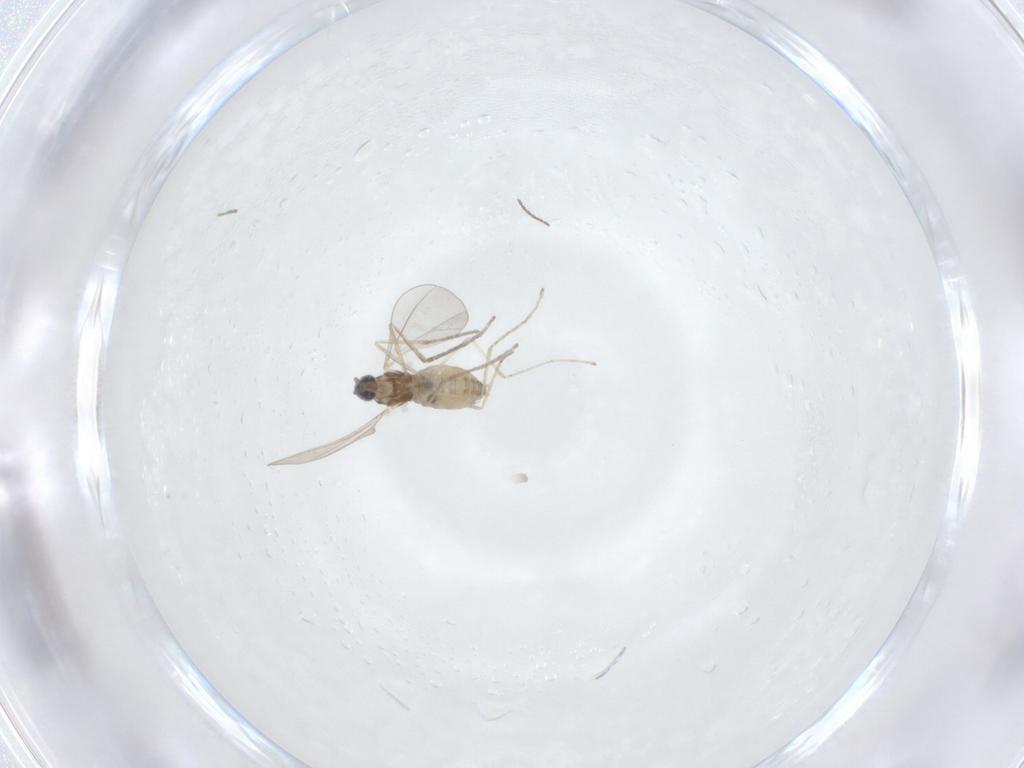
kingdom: Animalia
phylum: Arthropoda
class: Insecta
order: Diptera
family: Cecidomyiidae
